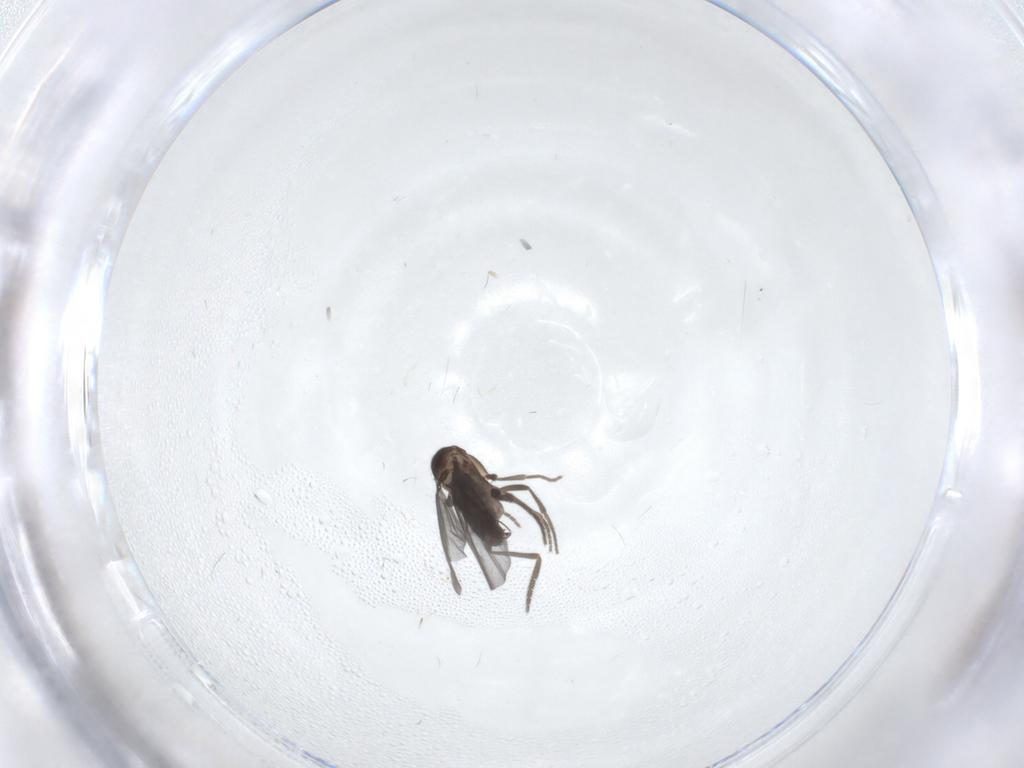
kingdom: Animalia
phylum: Arthropoda
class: Insecta
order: Diptera
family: Phoridae
